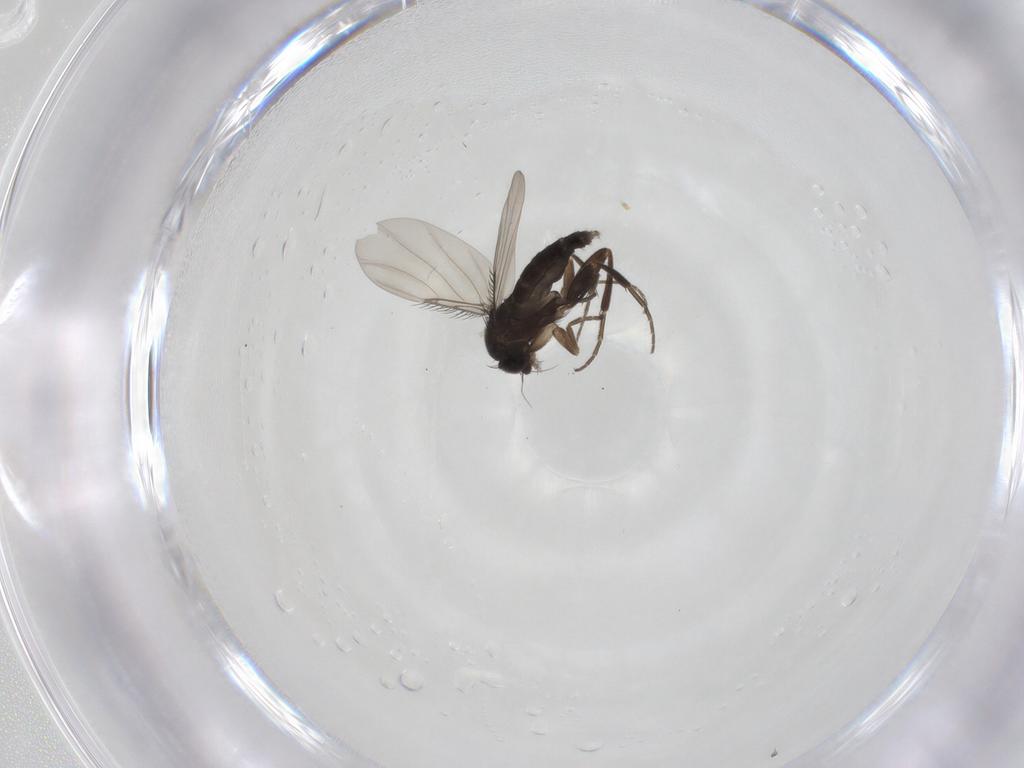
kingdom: Animalia
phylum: Arthropoda
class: Insecta
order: Diptera
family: Phoridae
